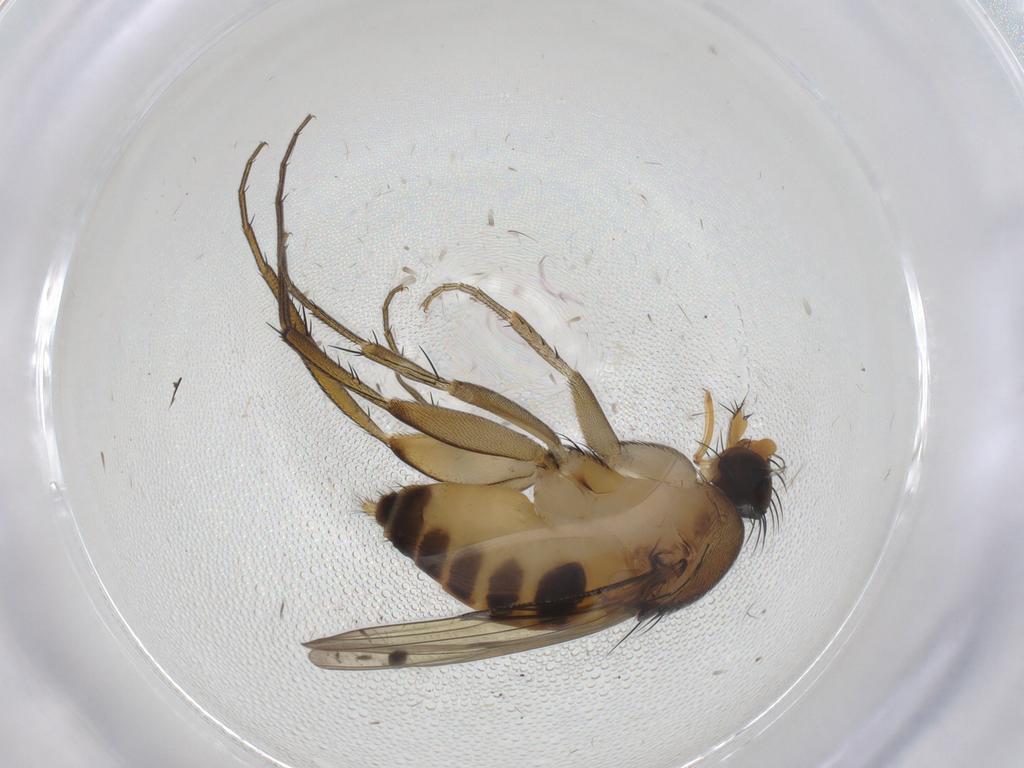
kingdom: Animalia
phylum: Arthropoda
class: Insecta
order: Diptera
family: Phoridae
